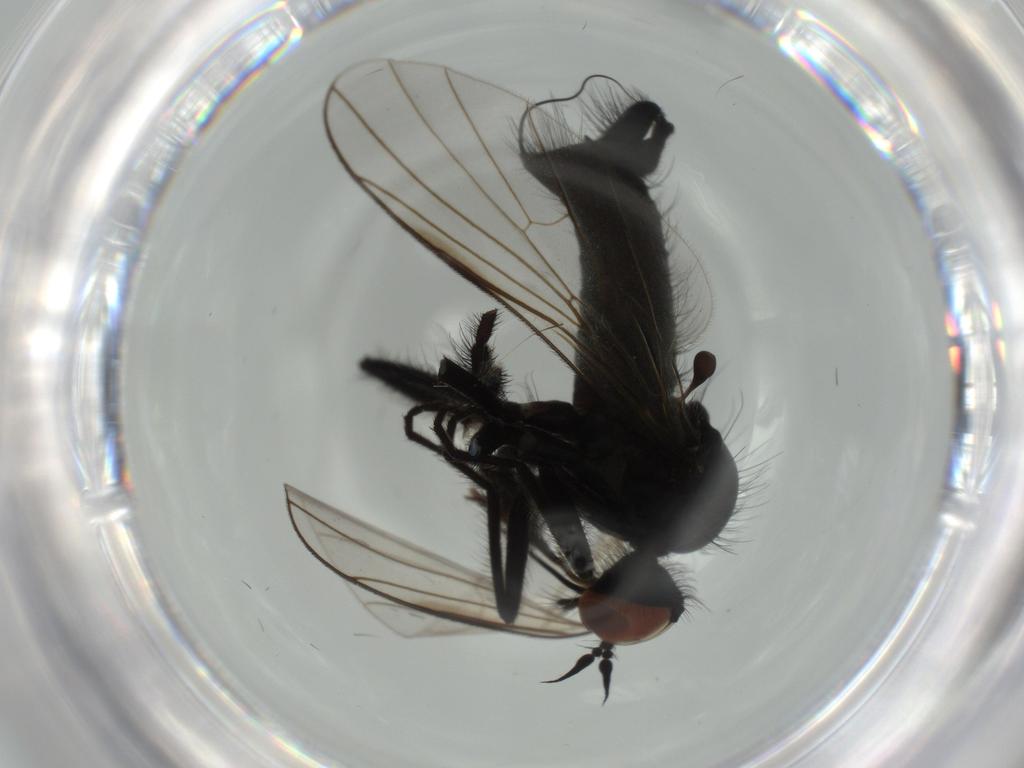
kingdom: Animalia
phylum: Arthropoda
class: Insecta
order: Diptera
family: Empididae
